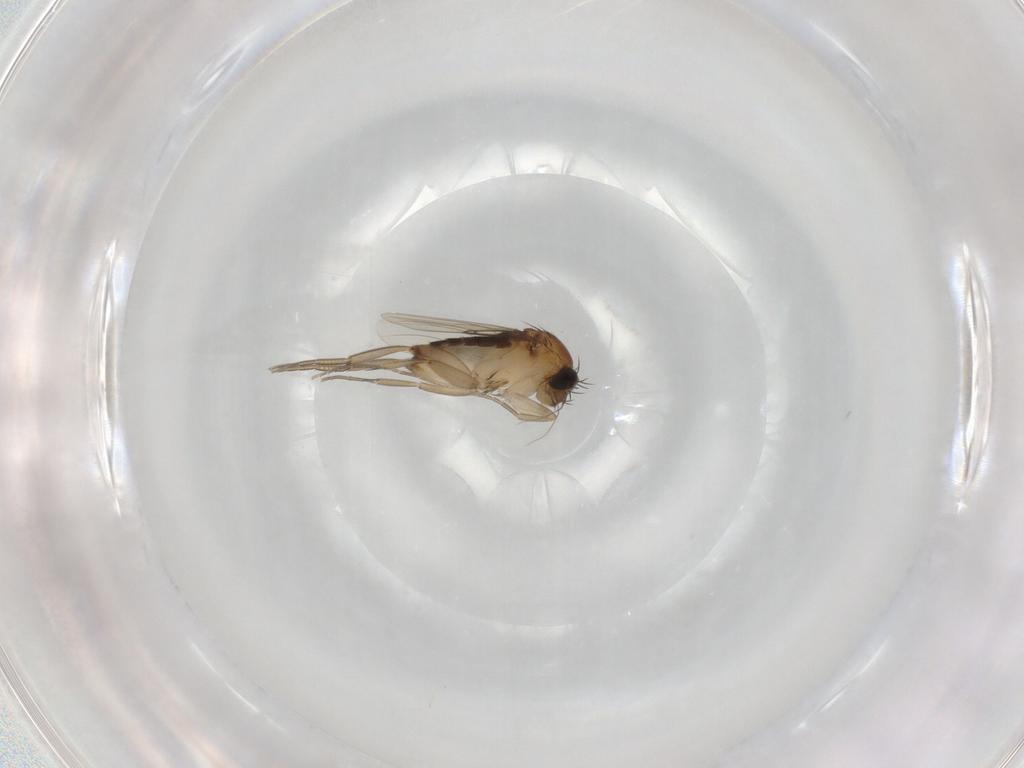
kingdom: Animalia
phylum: Arthropoda
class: Insecta
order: Diptera
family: Phoridae
